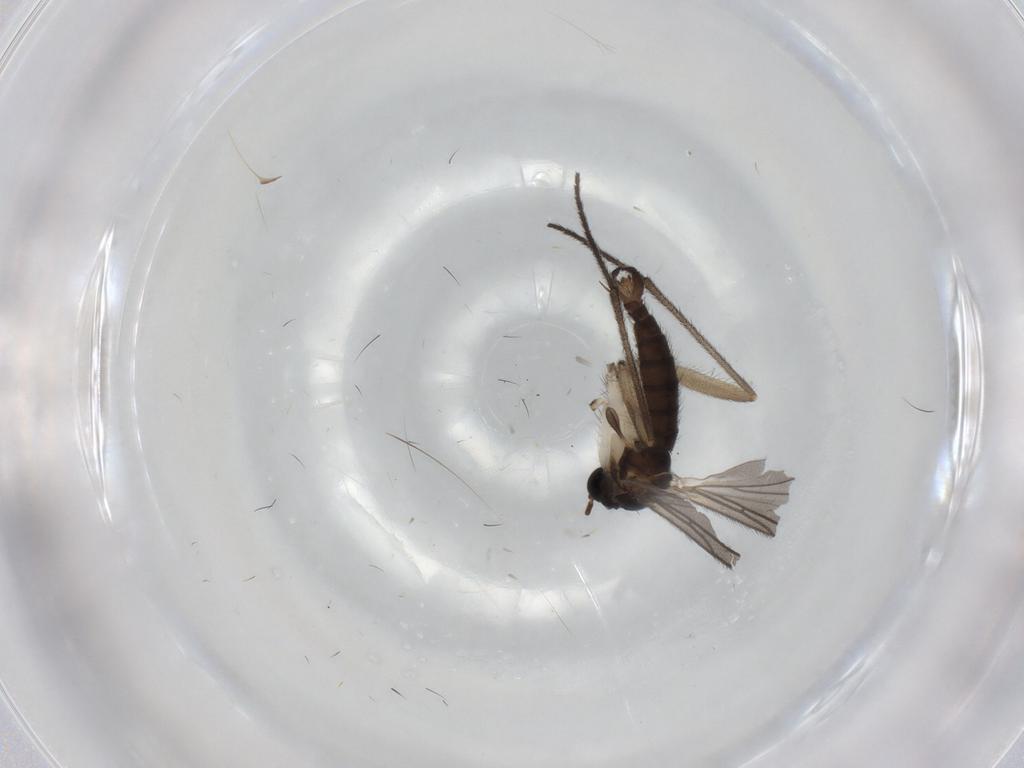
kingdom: Animalia
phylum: Arthropoda
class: Insecta
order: Diptera
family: Sciaridae
